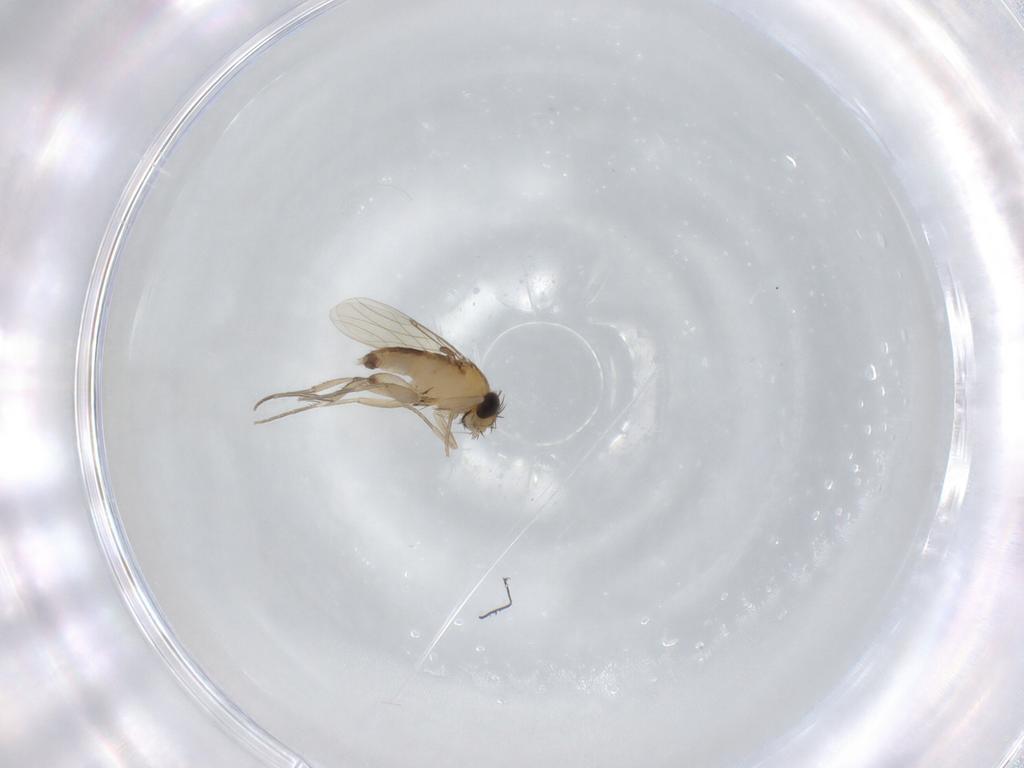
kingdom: Animalia
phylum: Arthropoda
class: Insecta
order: Diptera
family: Phoridae
